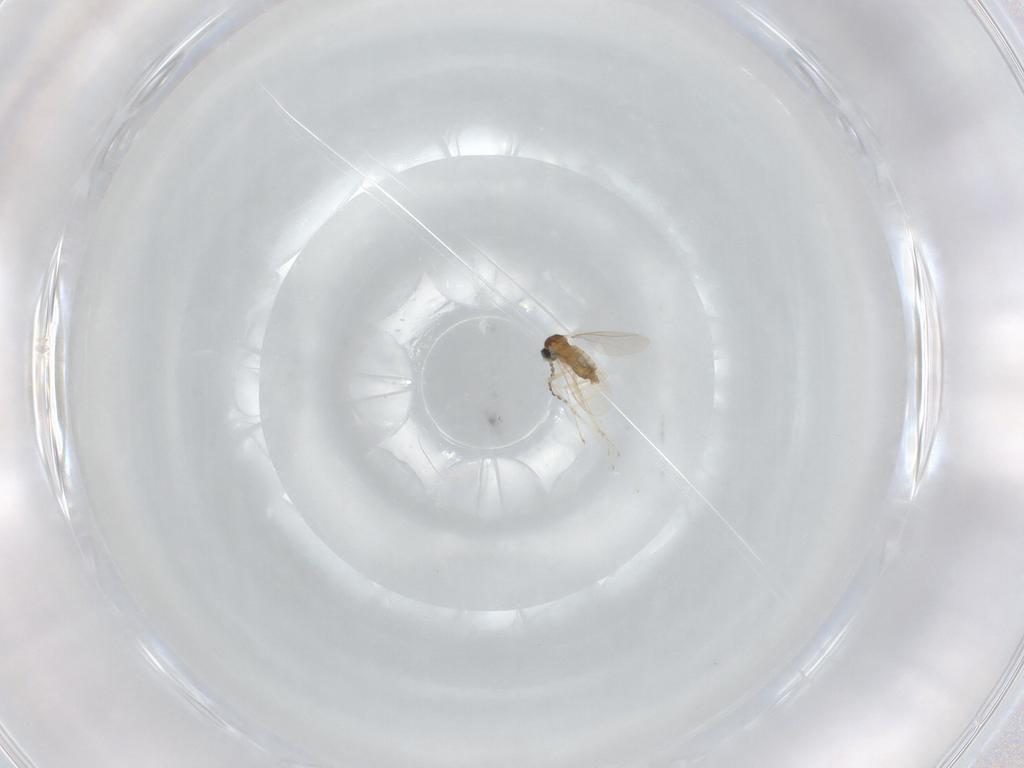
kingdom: Animalia
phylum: Arthropoda
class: Insecta
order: Diptera
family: Cecidomyiidae
